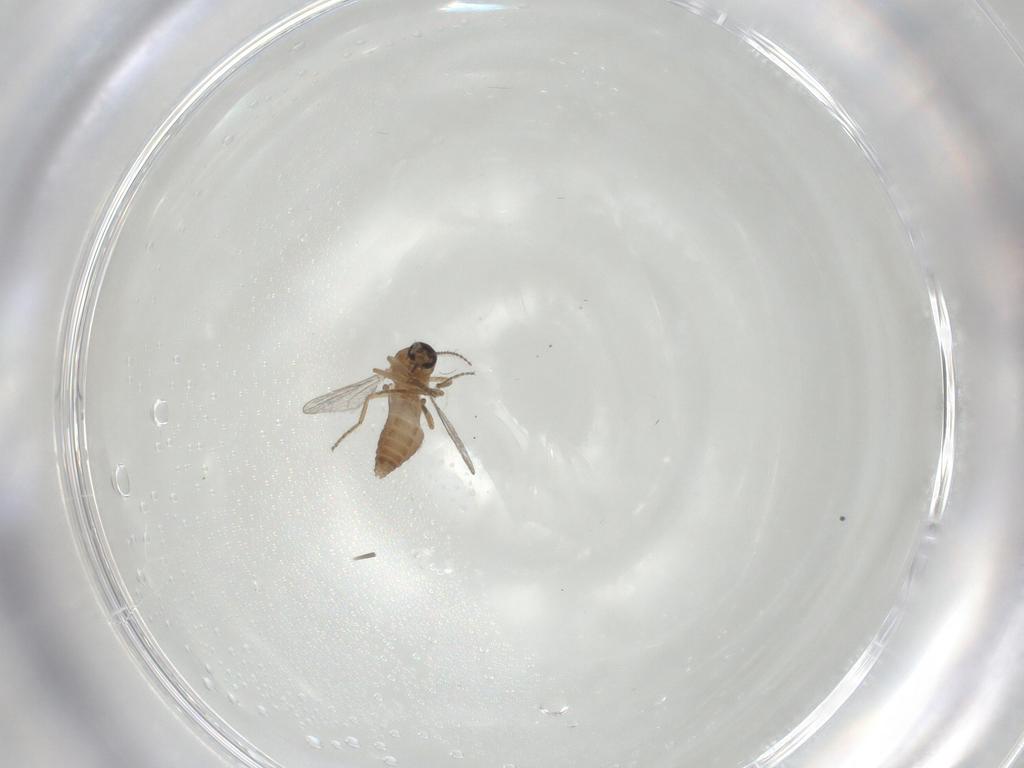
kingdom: Animalia
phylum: Arthropoda
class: Insecta
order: Diptera
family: Ceratopogonidae
